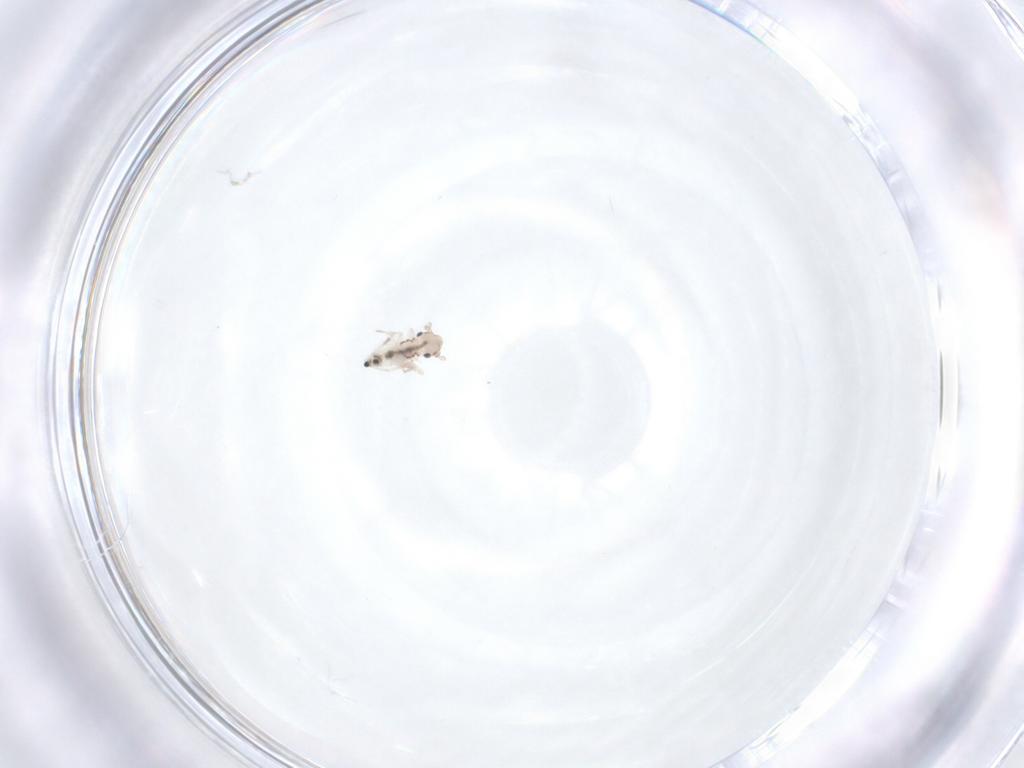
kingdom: Animalia
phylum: Arthropoda
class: Insecta
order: Psocodea
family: Lepidopsocidae
